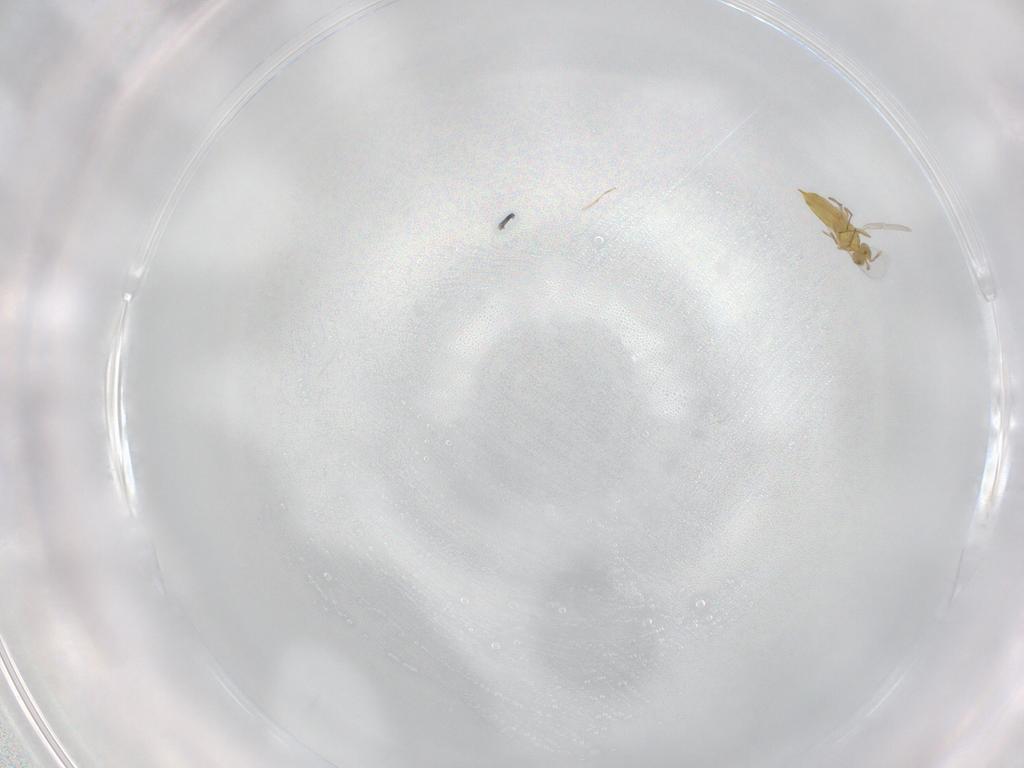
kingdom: Animalia
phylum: Arthropoda
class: Insecta
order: Hymenoptera
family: Aphelinidae
